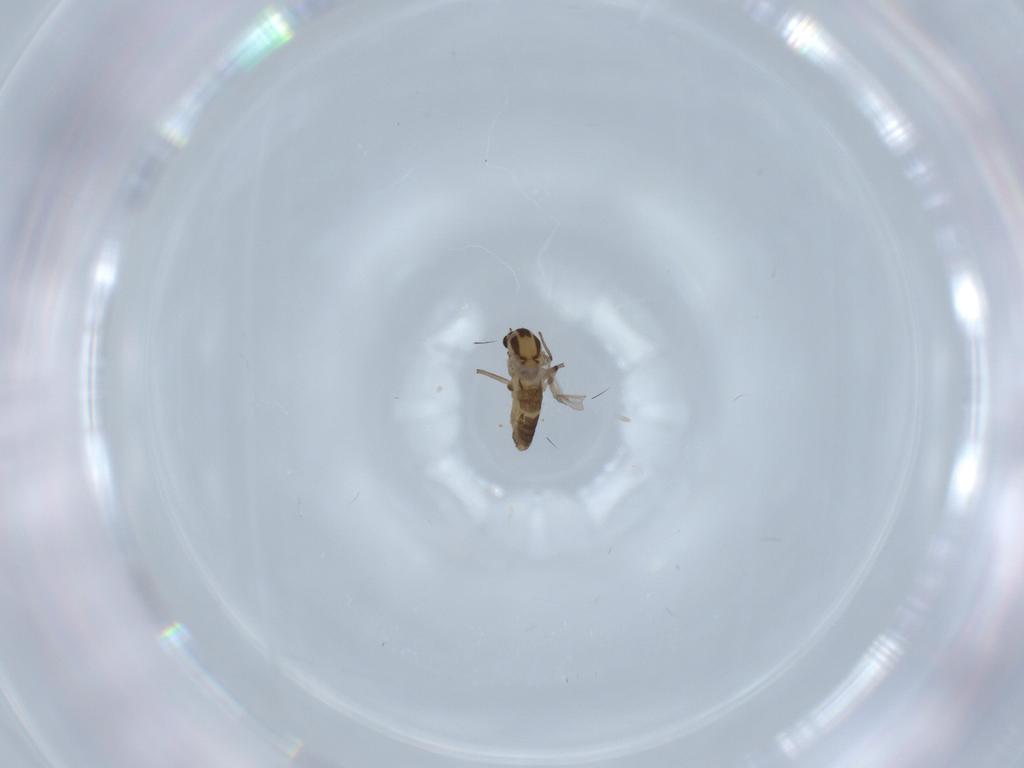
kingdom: Animalia
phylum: Arthropoda
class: Insecta
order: Diptera
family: Chironomidae
